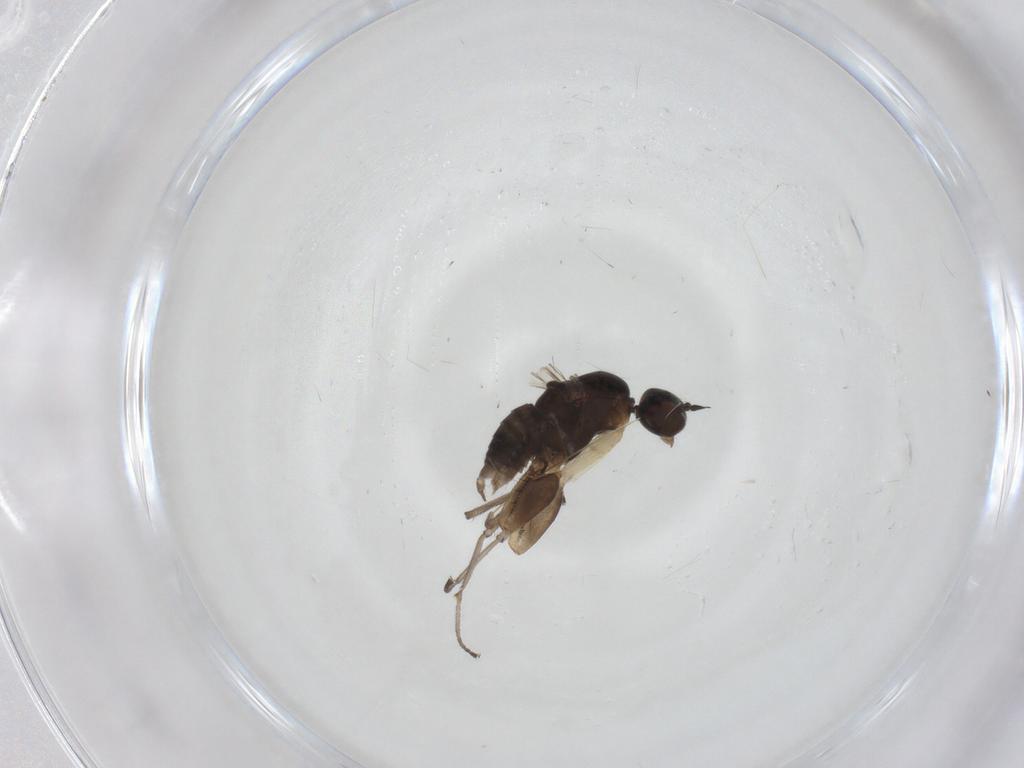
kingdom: Animalia
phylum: Arthropoda
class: Insecta
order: Diptera
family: Empididae
